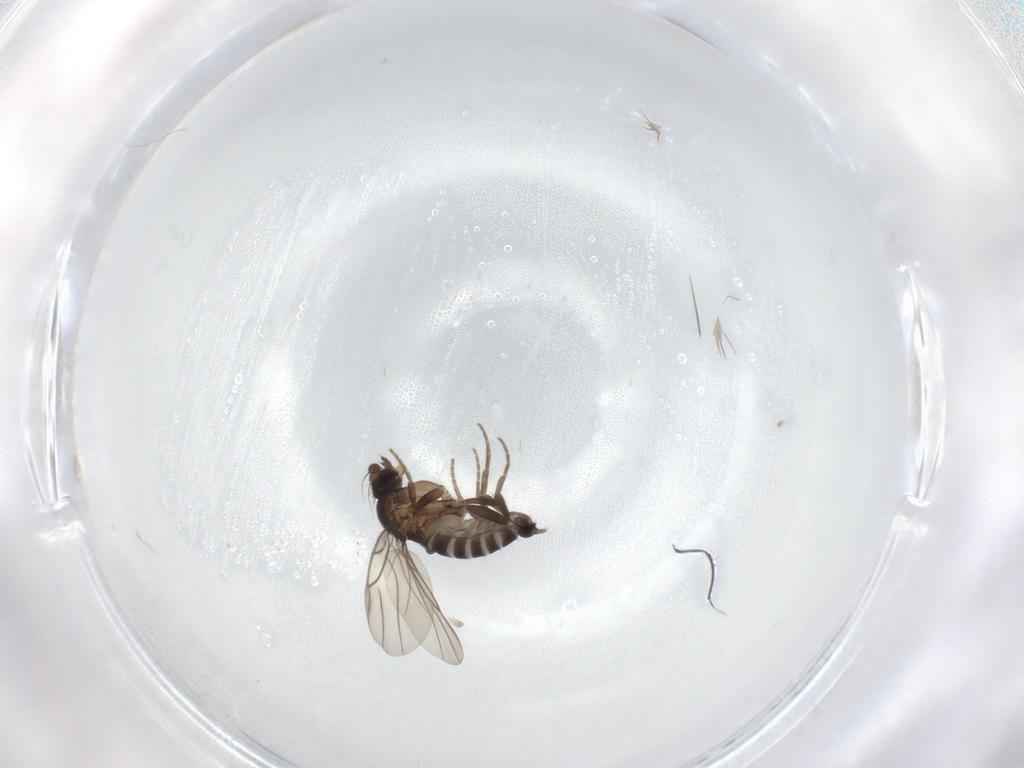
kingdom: Animalia
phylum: Arthropoda
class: Insecta
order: Diptera
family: Phoridae
